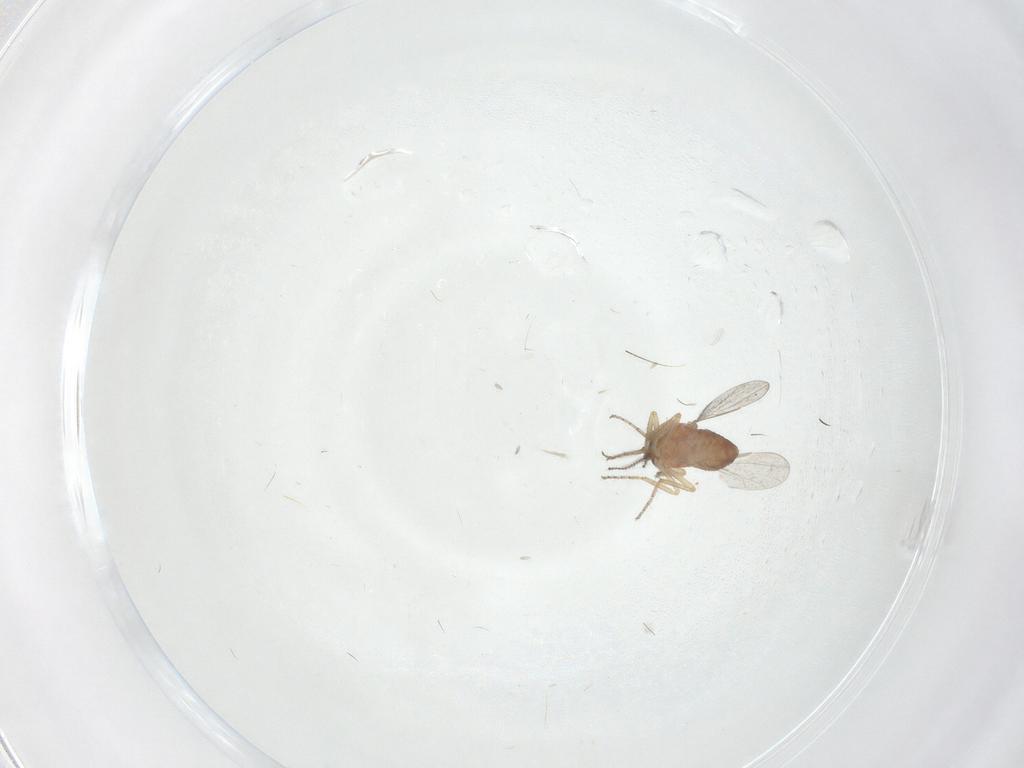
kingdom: Animalia
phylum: Arthropoda
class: Insecta
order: Diptera
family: Ceratopogonidae
